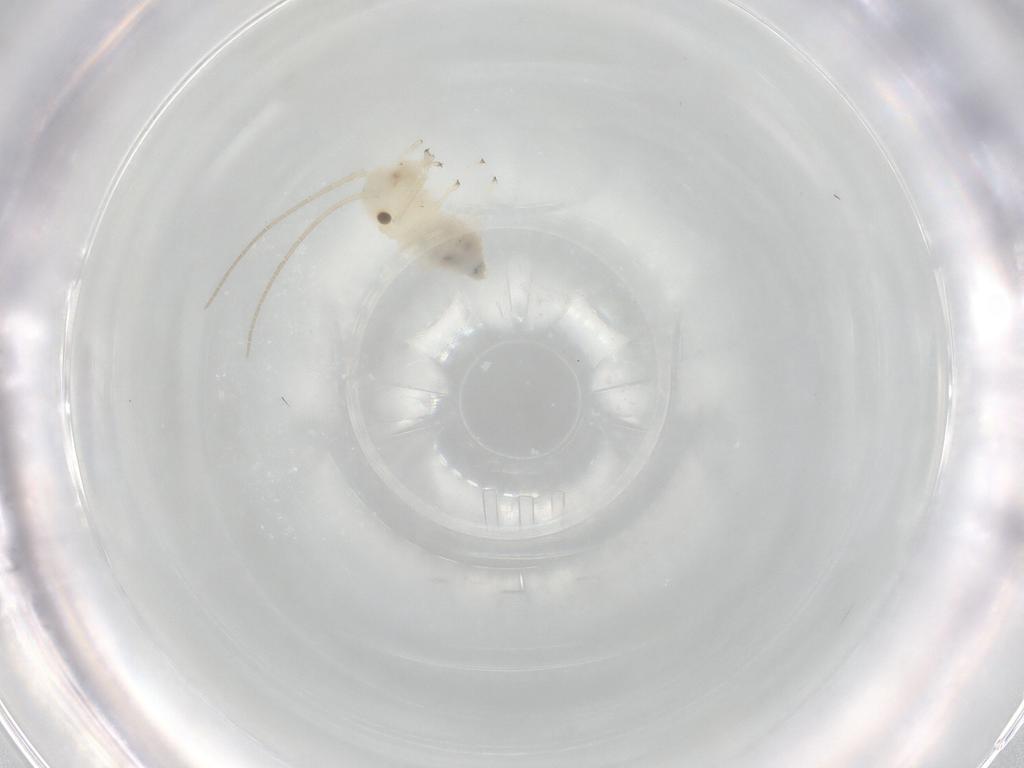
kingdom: Animalia
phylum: Arthropoda
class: Insecta
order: Psocodea
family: Caeciliusidae
